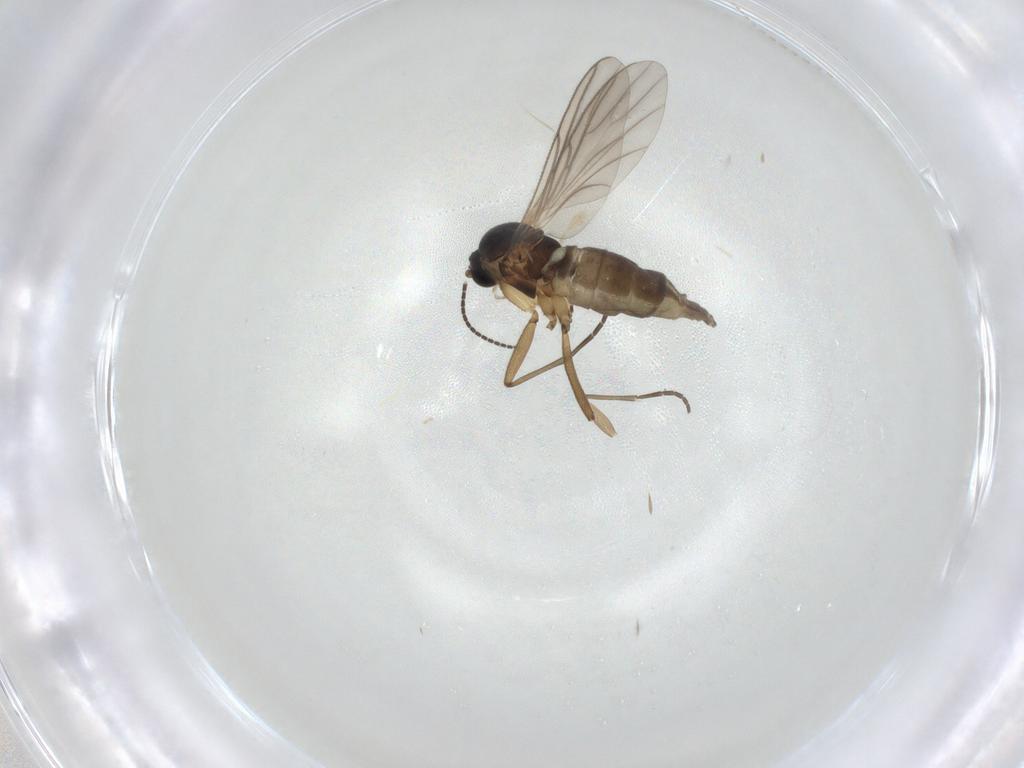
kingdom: Animalia
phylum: Arthropoda
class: Insecta
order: Diptera
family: Sciaridae
